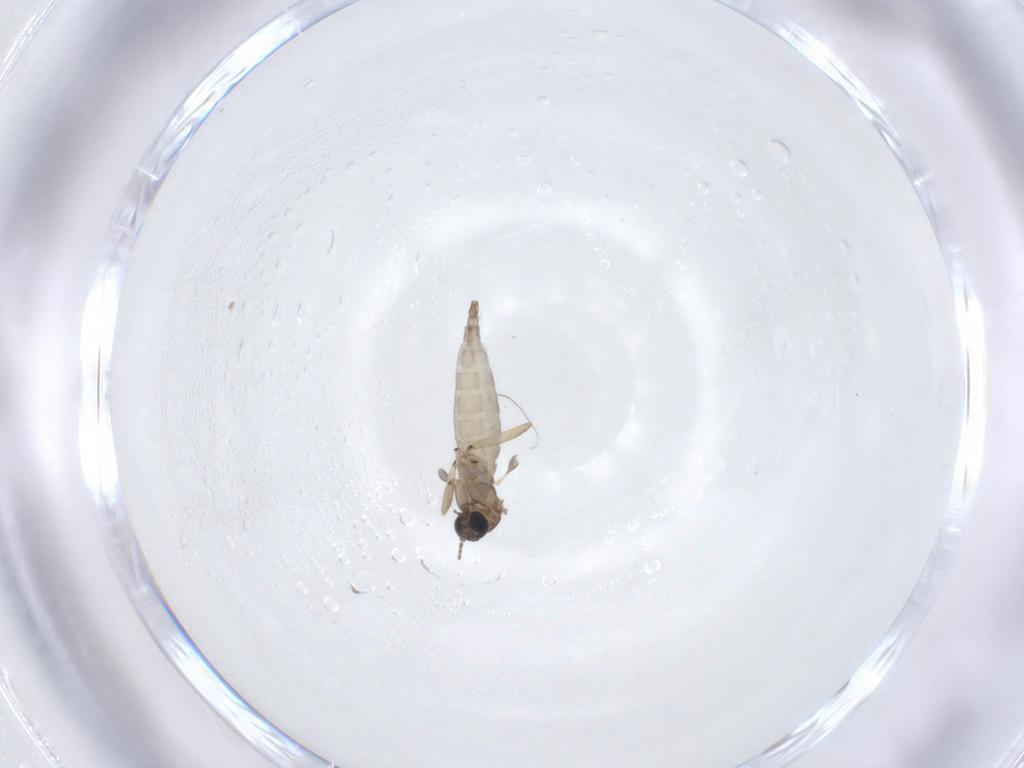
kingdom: Animalia
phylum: Arthropoda
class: Insecta
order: Diptera
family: Sciaridae
